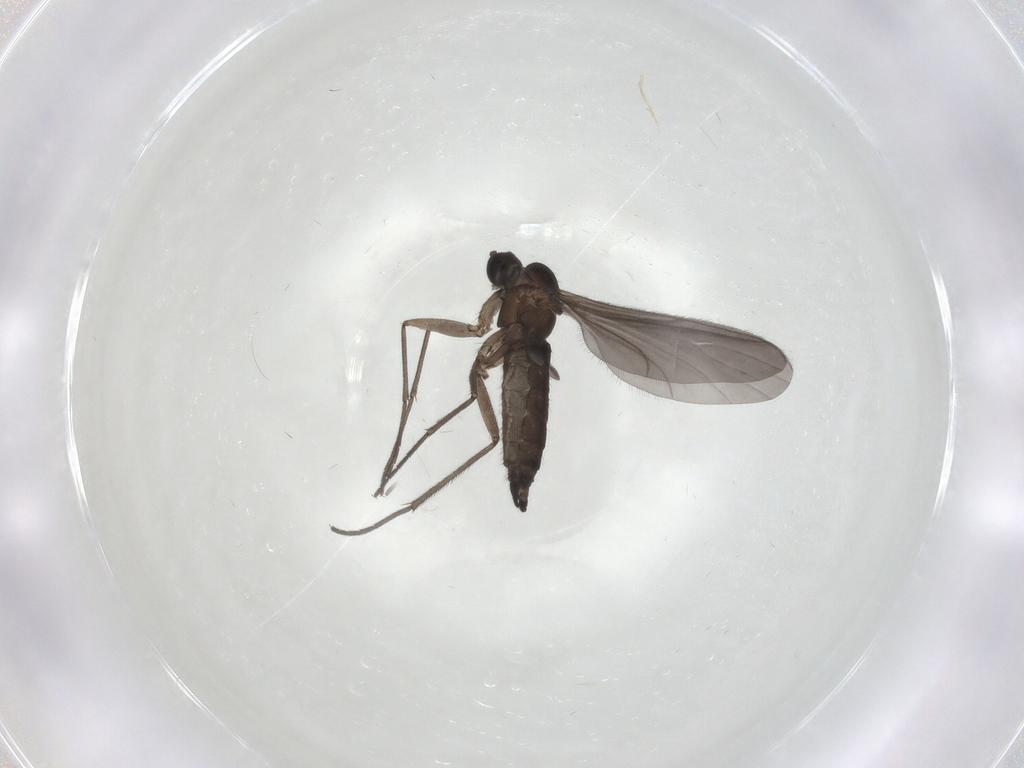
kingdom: Animalia
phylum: Arthropoda
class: Insecta
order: Diptera
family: Sciaridae
